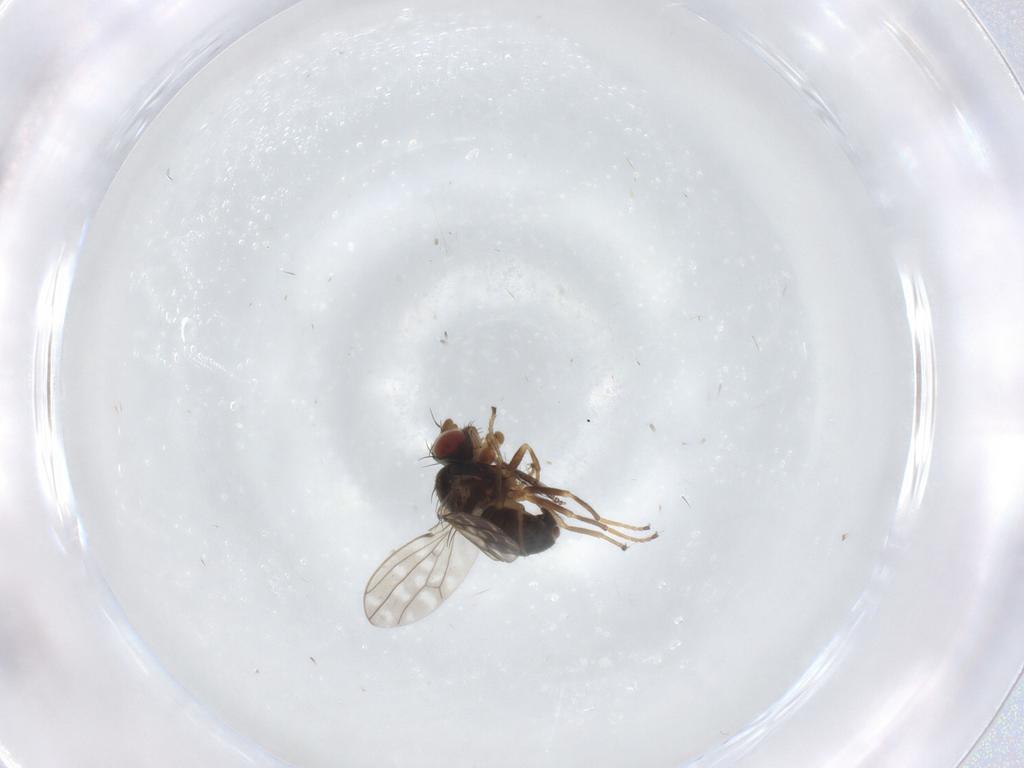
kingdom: Animalia
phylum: Arthropoda
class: Insecta
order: Diptera
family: Ephydridae
